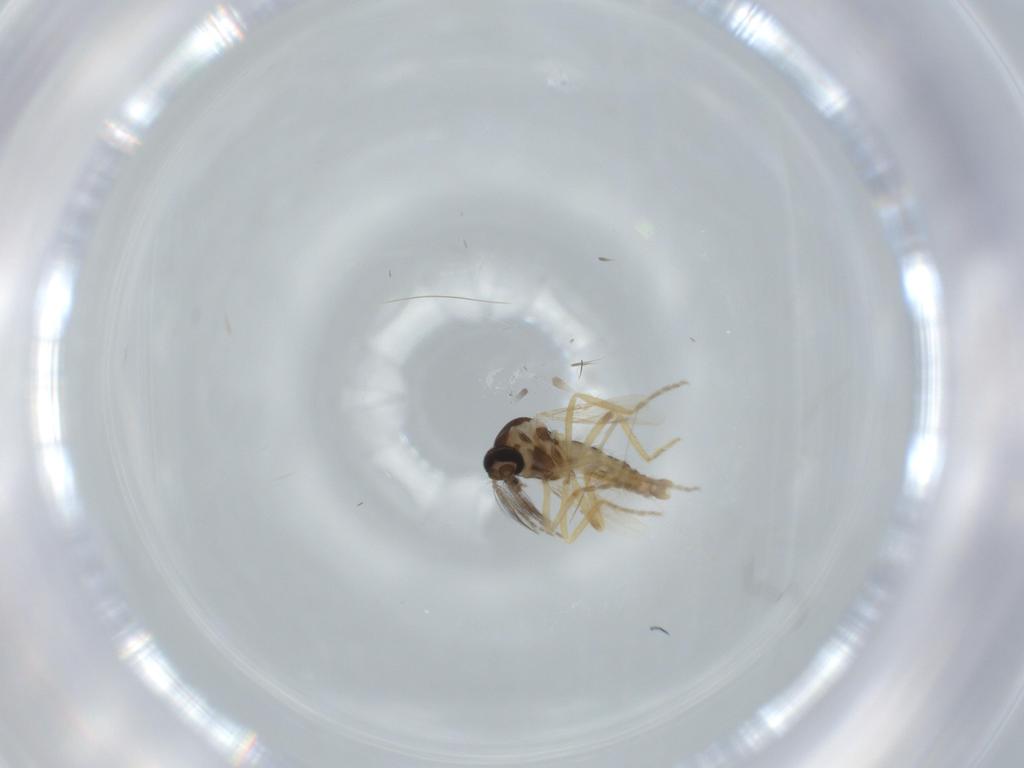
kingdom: Animalia
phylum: Arthropoda
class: Insecta
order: Diptera
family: Ceratopogonidae
